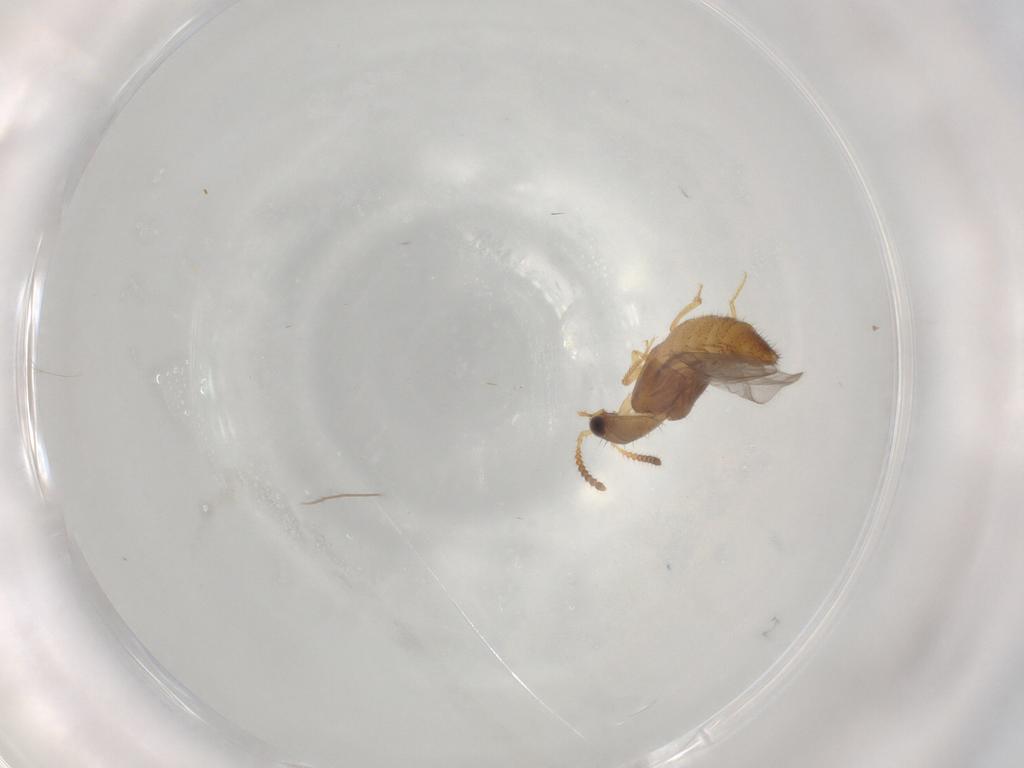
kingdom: Animalia
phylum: Arthropoda
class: Insecta
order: Coleoptera
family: Staphylinidae
